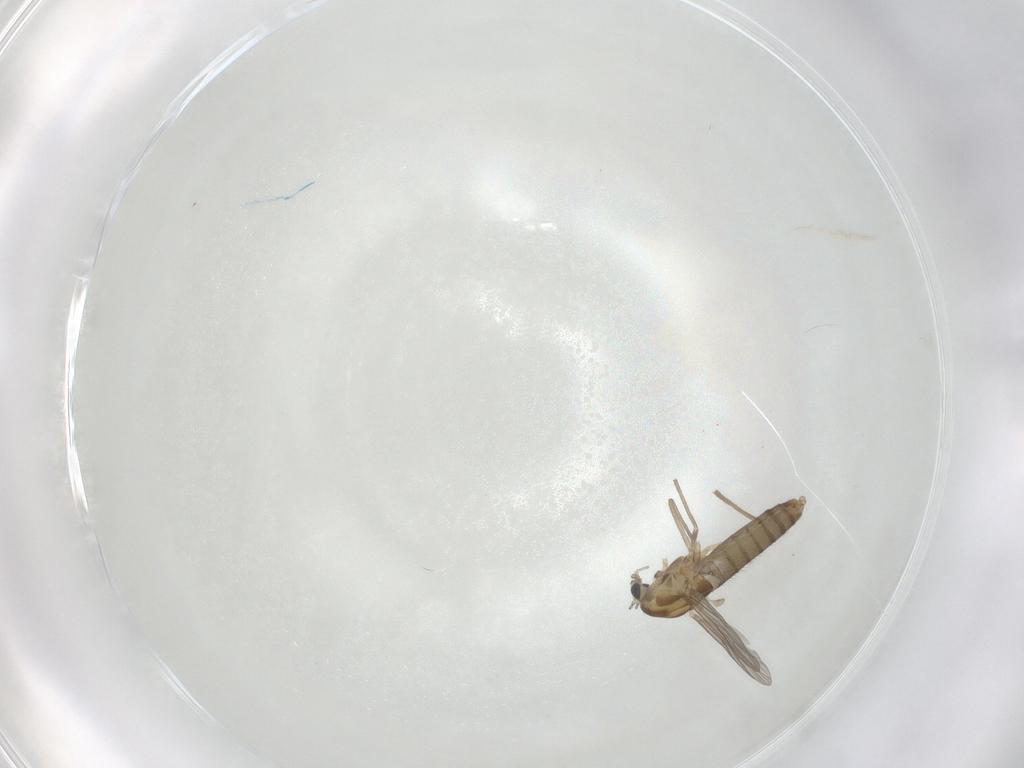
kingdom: Animalia
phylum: Arthropoda
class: Insecta
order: Diptera
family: Chironomidae
